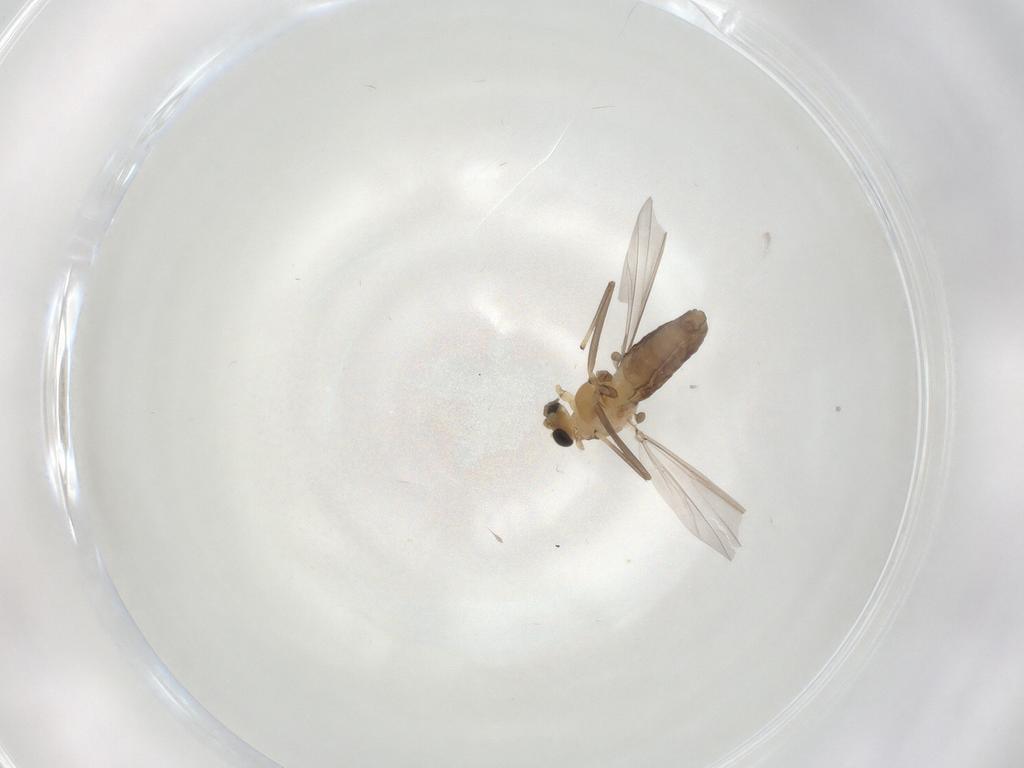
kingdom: Animalia
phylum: Arthropoda
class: Insecta
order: Diptera
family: Chironomidae
